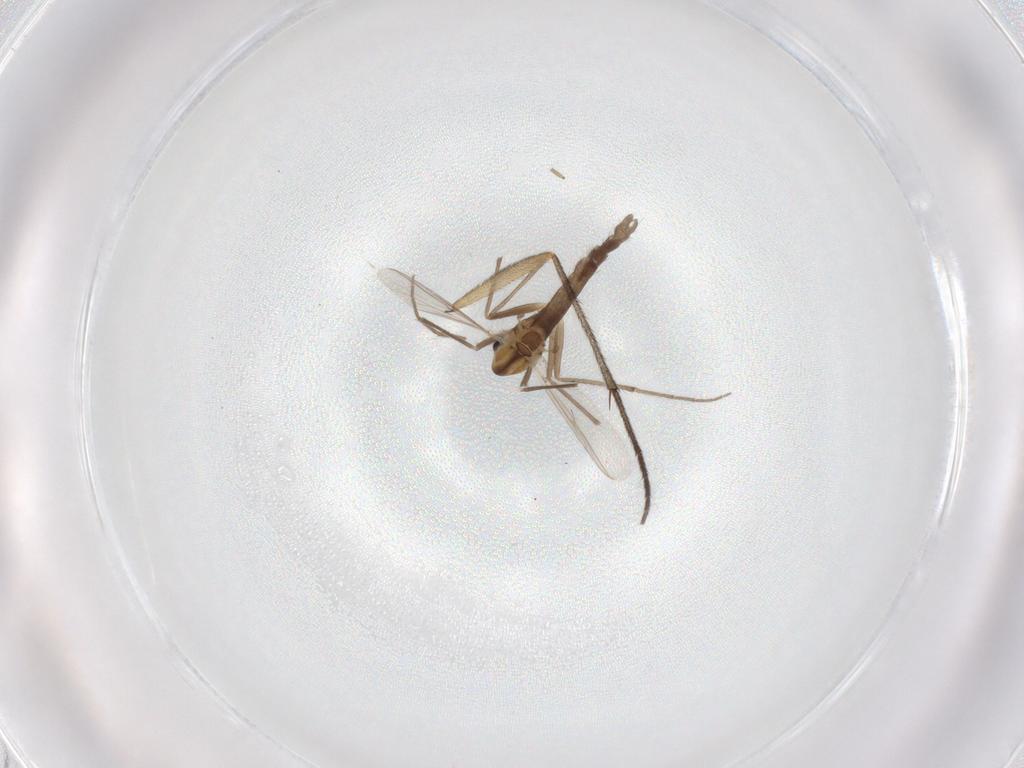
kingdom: Animalia
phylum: Arthropoda
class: Insecta
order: Diptera
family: Chironomidae
